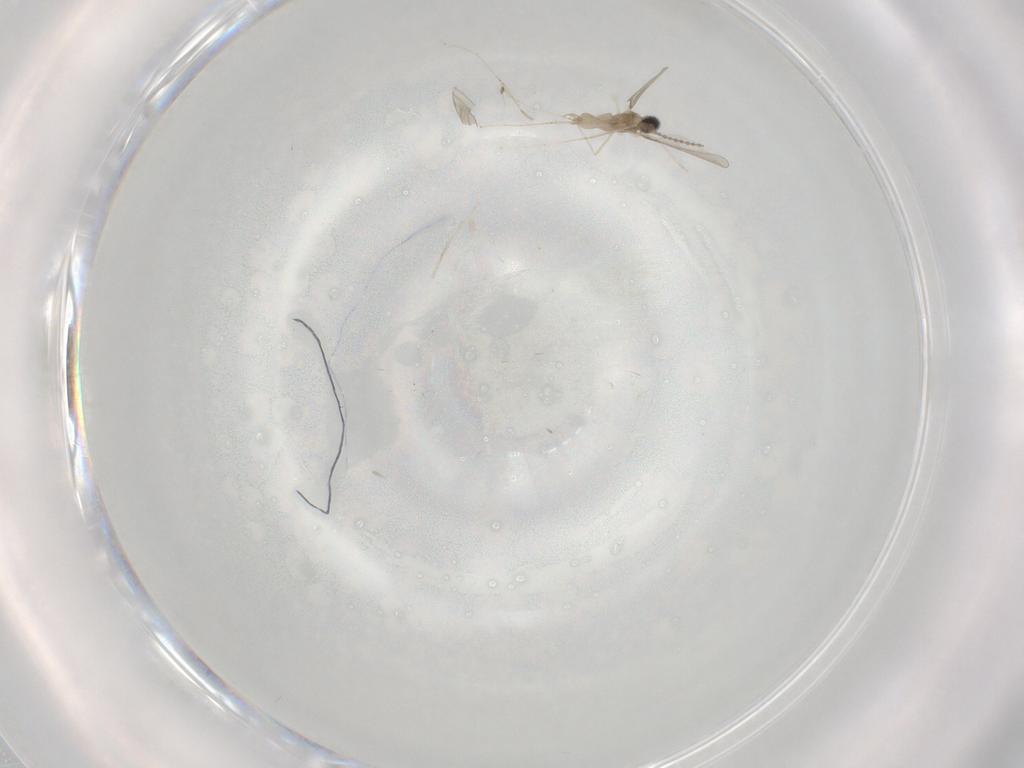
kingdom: Animalia
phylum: Arthropoda
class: Insecta
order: Diptera
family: Cecidomyiidae
